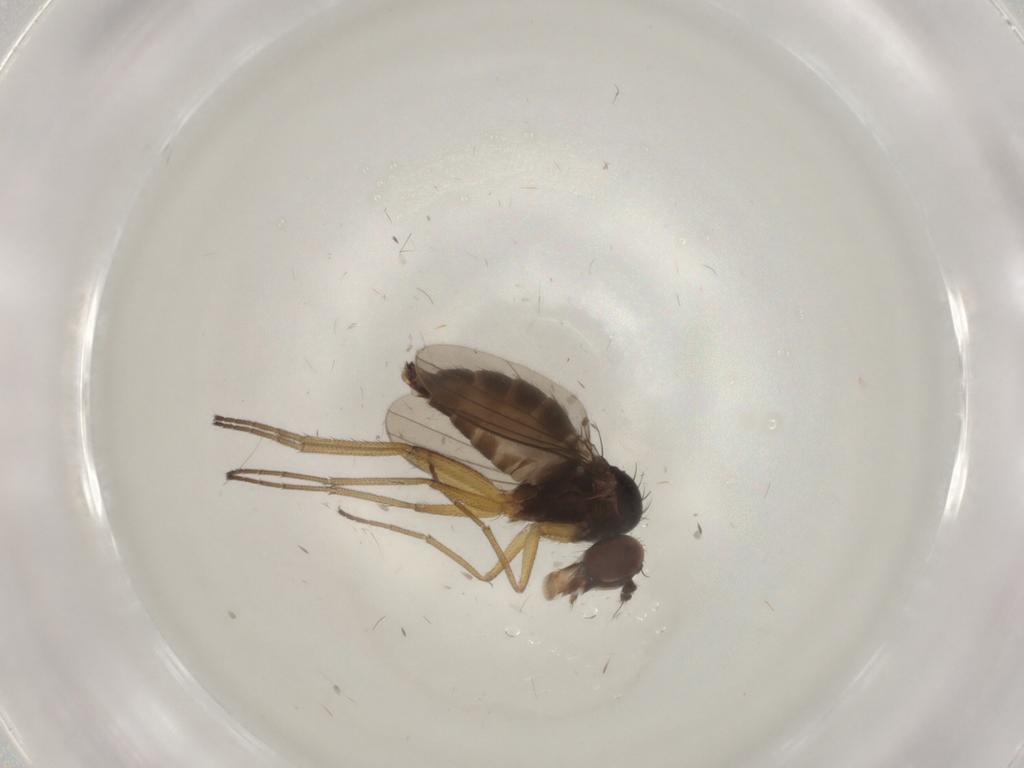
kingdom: Animalia
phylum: Arthropoda
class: Insecta
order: Diptera
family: Dolichopodidae
